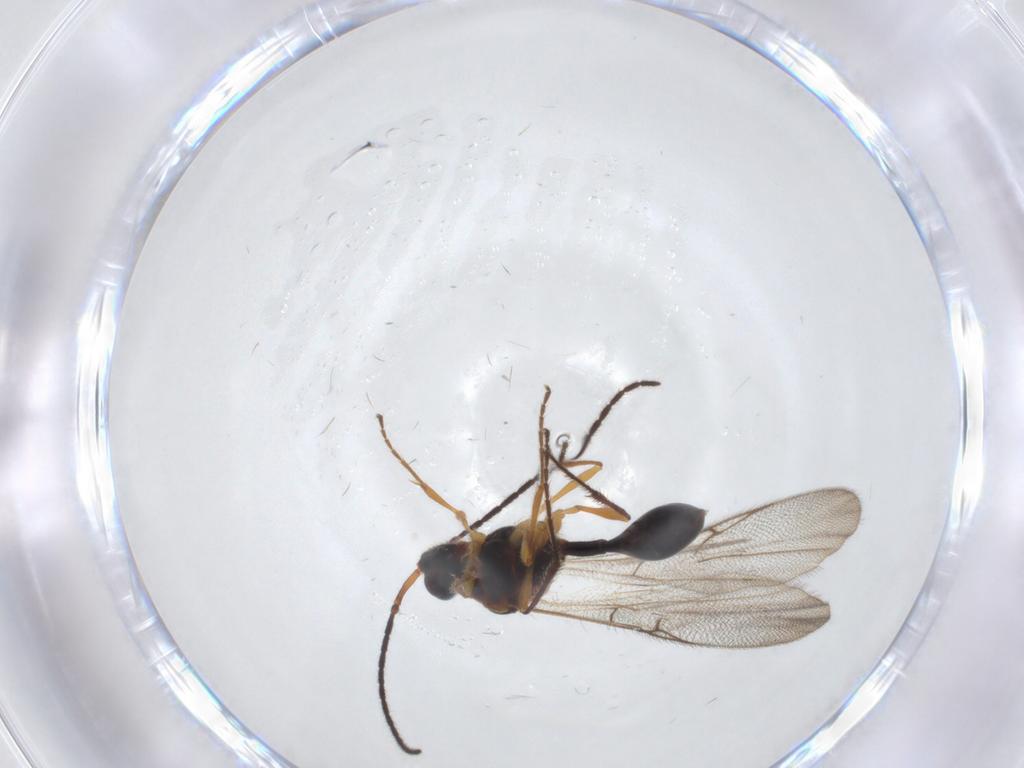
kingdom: Animalia
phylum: Arthropoda
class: Insecta
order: Hymenoptera
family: Diapriidae
